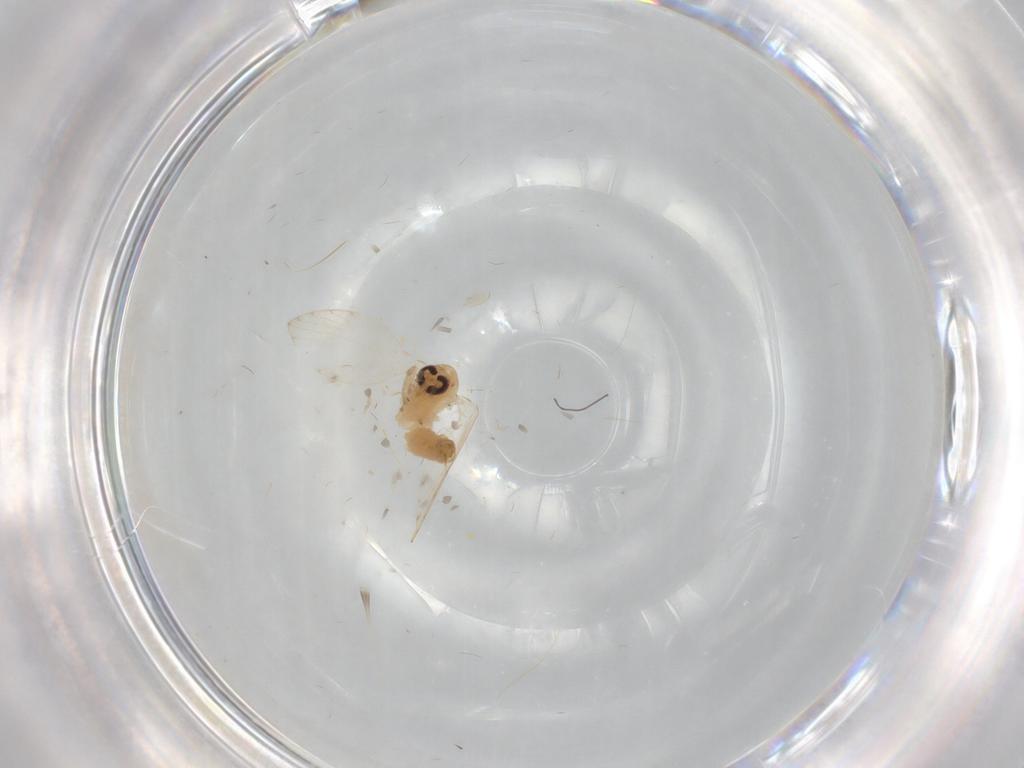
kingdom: Animalia
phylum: Arthropoda
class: Insecta
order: Diptera
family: Psychodidae
